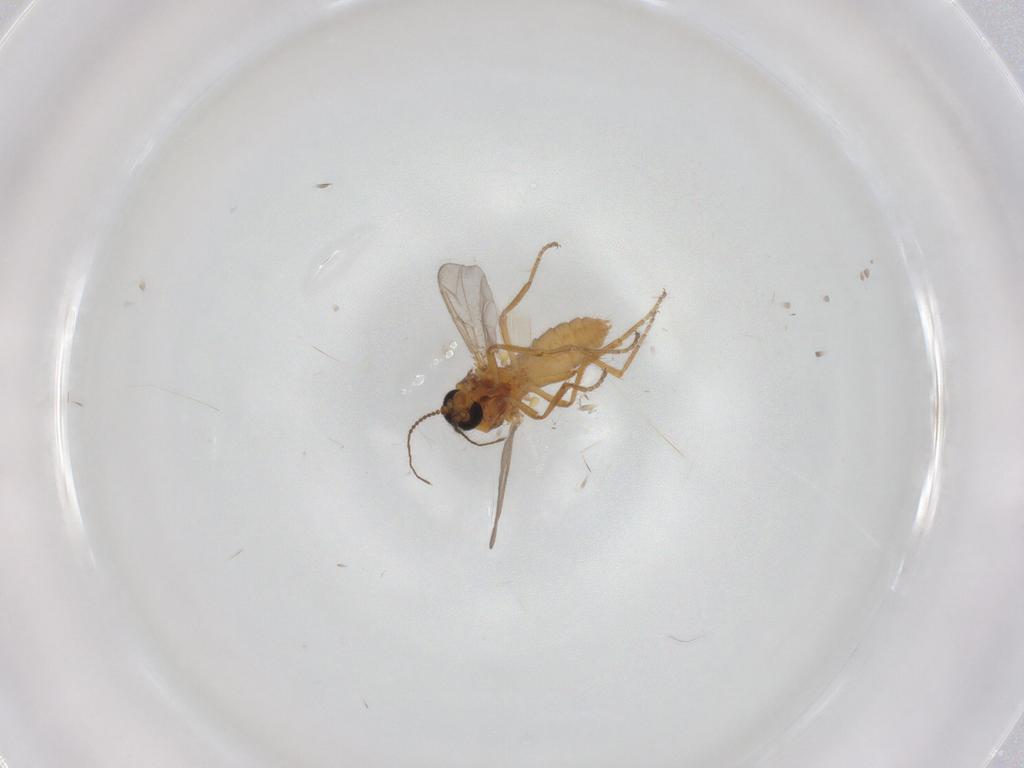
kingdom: Animalia
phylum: Arthropoda
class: Insecta
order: Diptera
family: Ceratopogonidae
